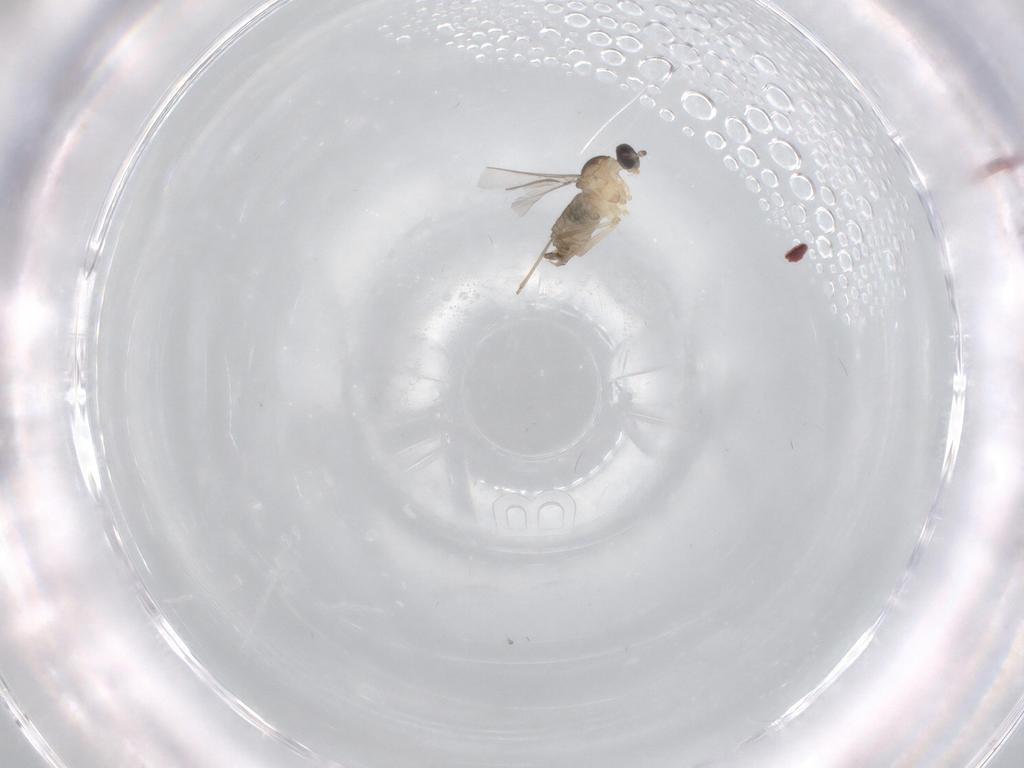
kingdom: Animalia
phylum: Arthropoda
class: Insecta
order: Diptera
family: Cecidomyiidae
